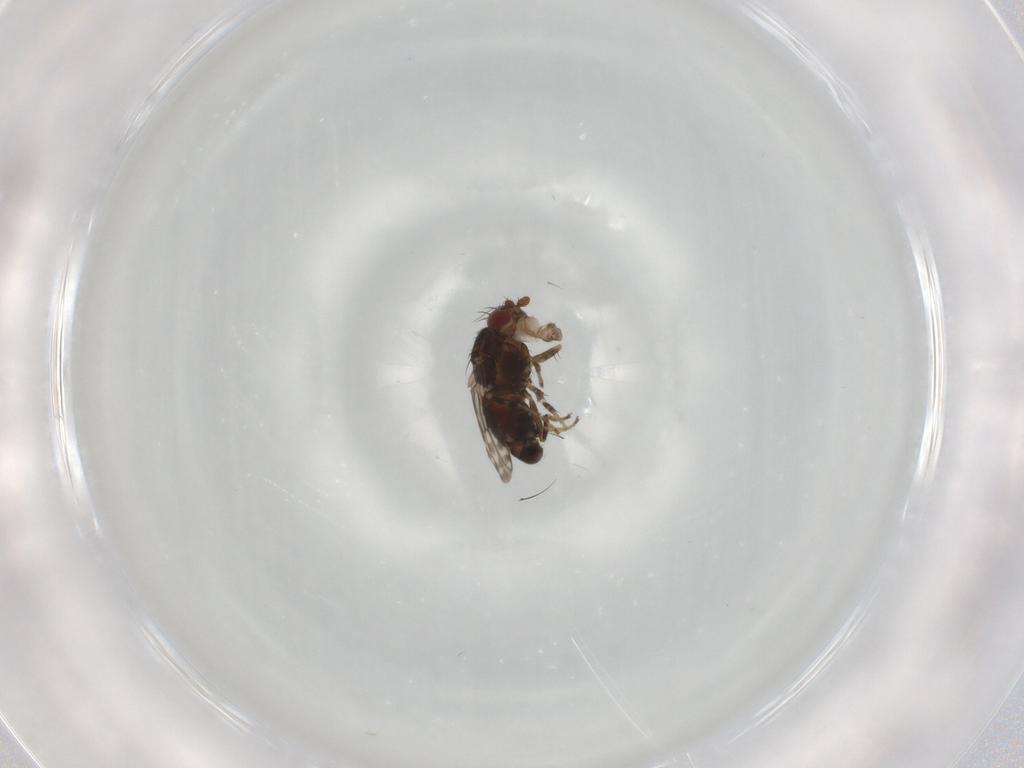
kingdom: Animalia
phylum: Arthropoda
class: Insecta
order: Diptera
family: Sphaeroceridae
